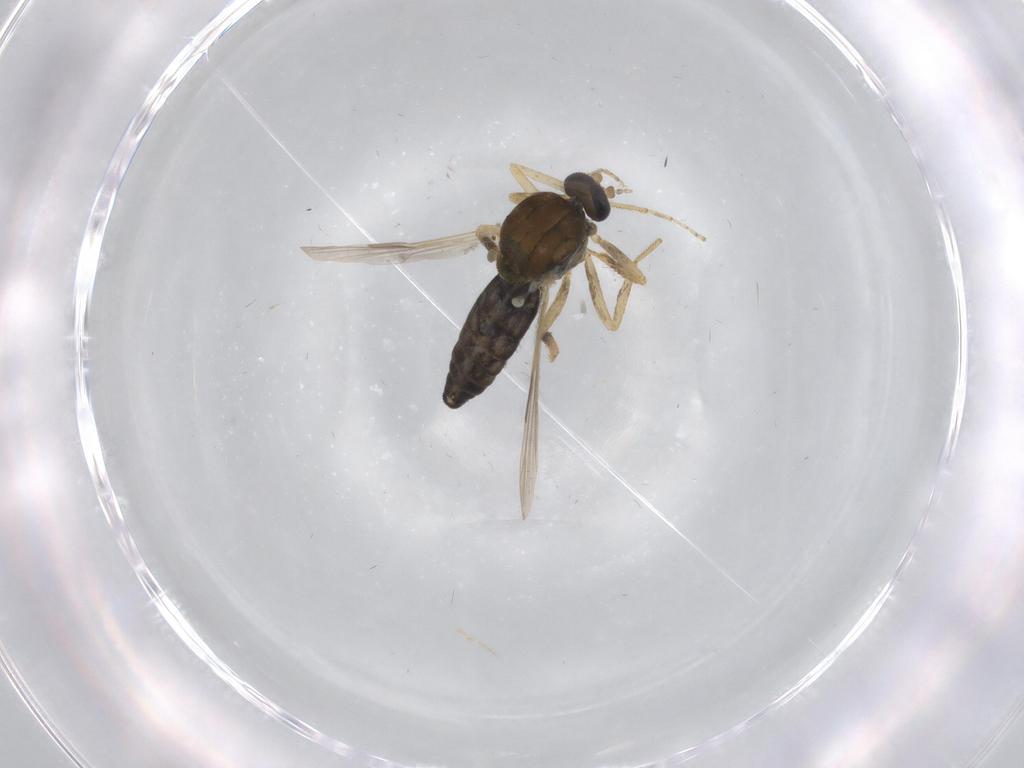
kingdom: Animalia
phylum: Arthropoda
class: Insecta
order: Diptera
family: Ceratopogonidae
